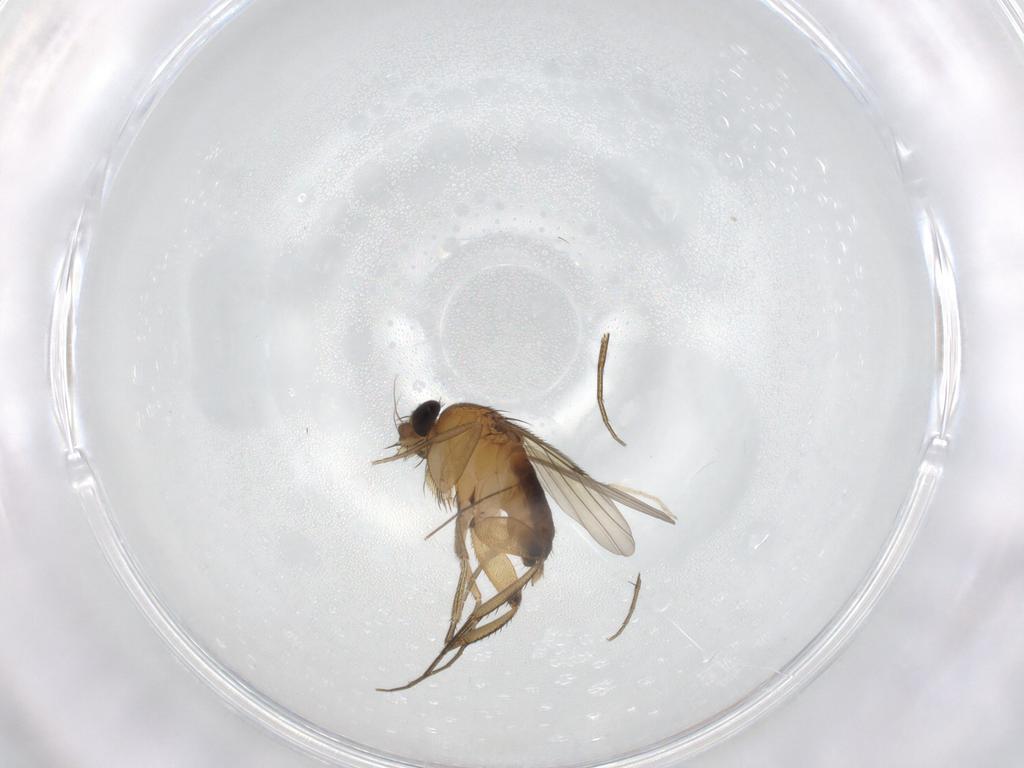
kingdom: Animalia
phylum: Arthropoda
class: Insecta
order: Diptera
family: Phoridae
